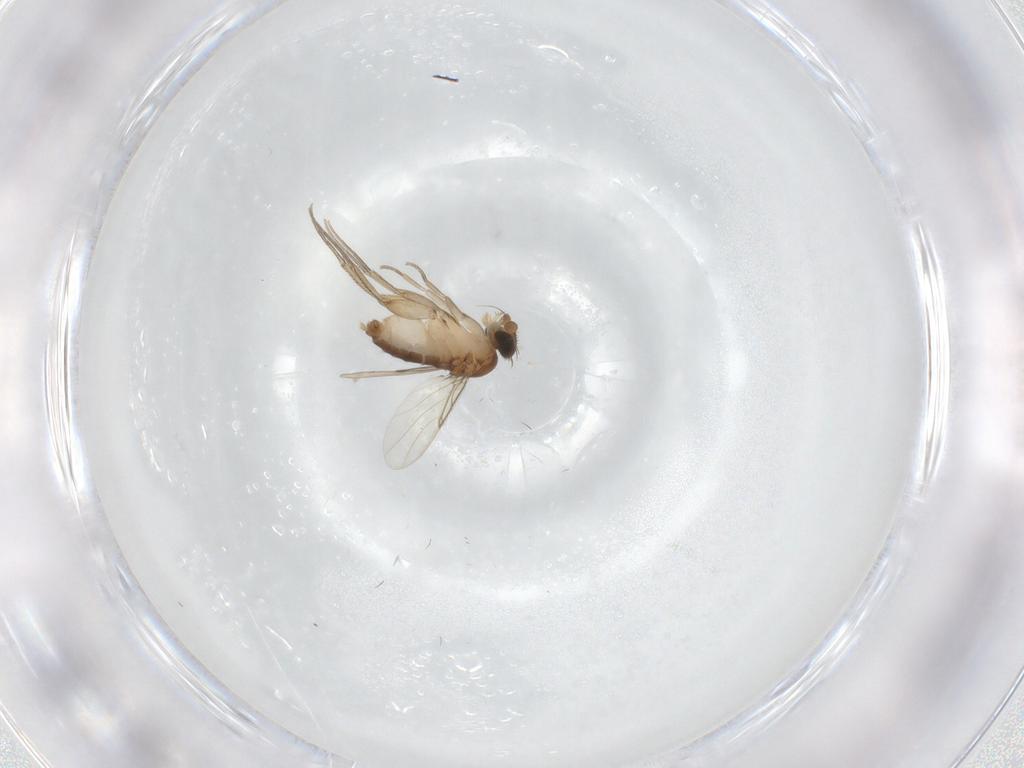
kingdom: Animalia
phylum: Arthropoda
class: Insecta
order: Diptera
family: Phoridae
